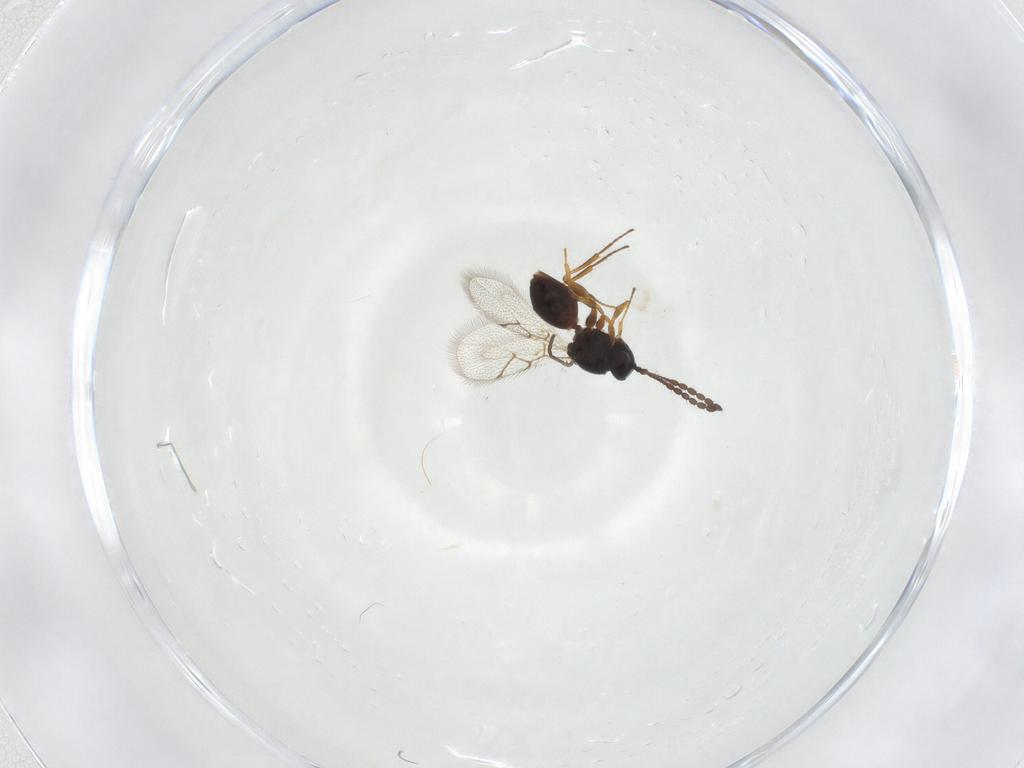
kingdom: Animalia
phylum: Arthropoda
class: Insecta
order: Hymenoptera
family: Figitidae
